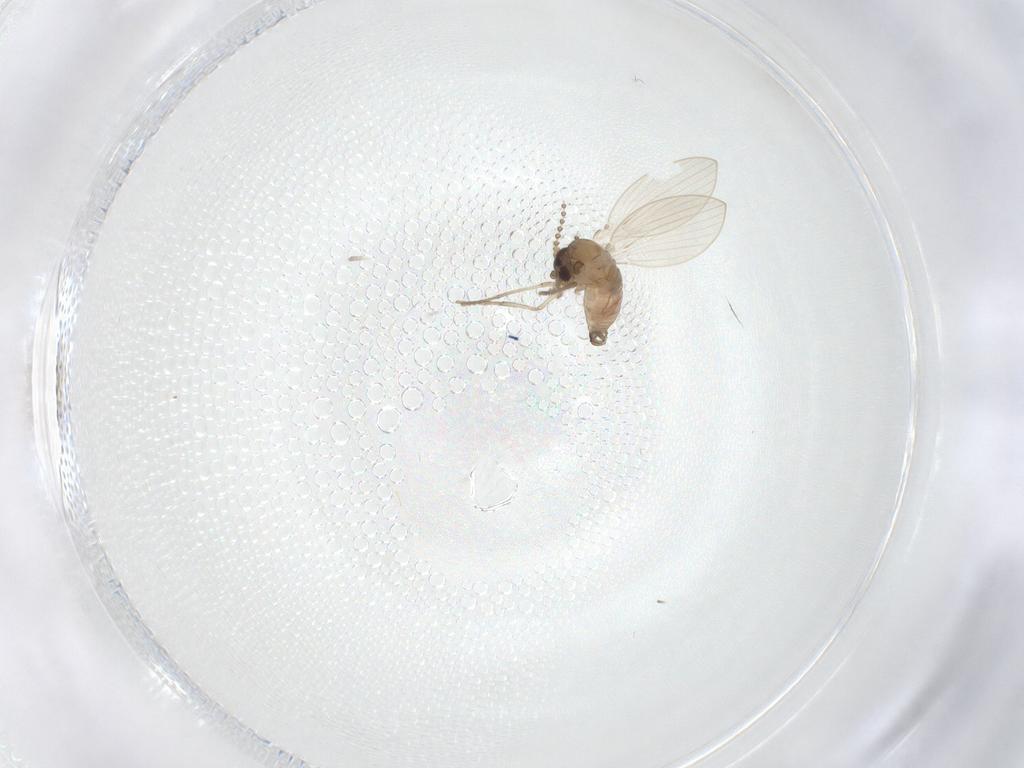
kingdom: Animalia
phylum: Arthropoda
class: Insecta
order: Diptera
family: Psychodidae
